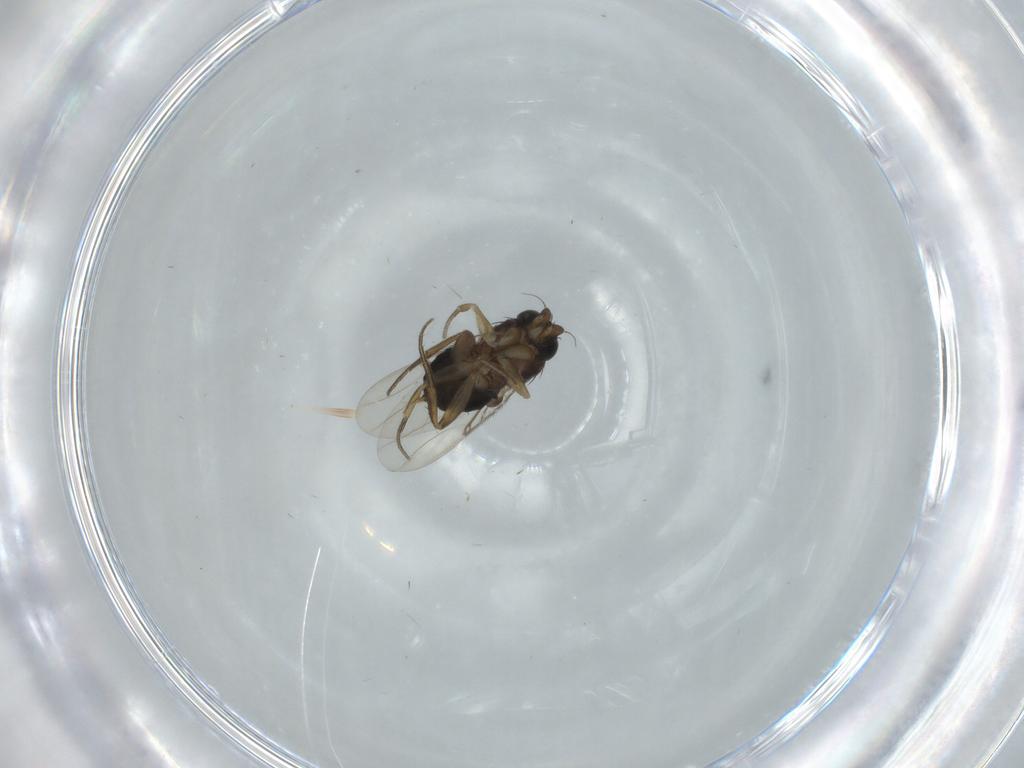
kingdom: Animalia
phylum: Arthropoda
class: Insecta
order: Diptera
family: Phoridae
